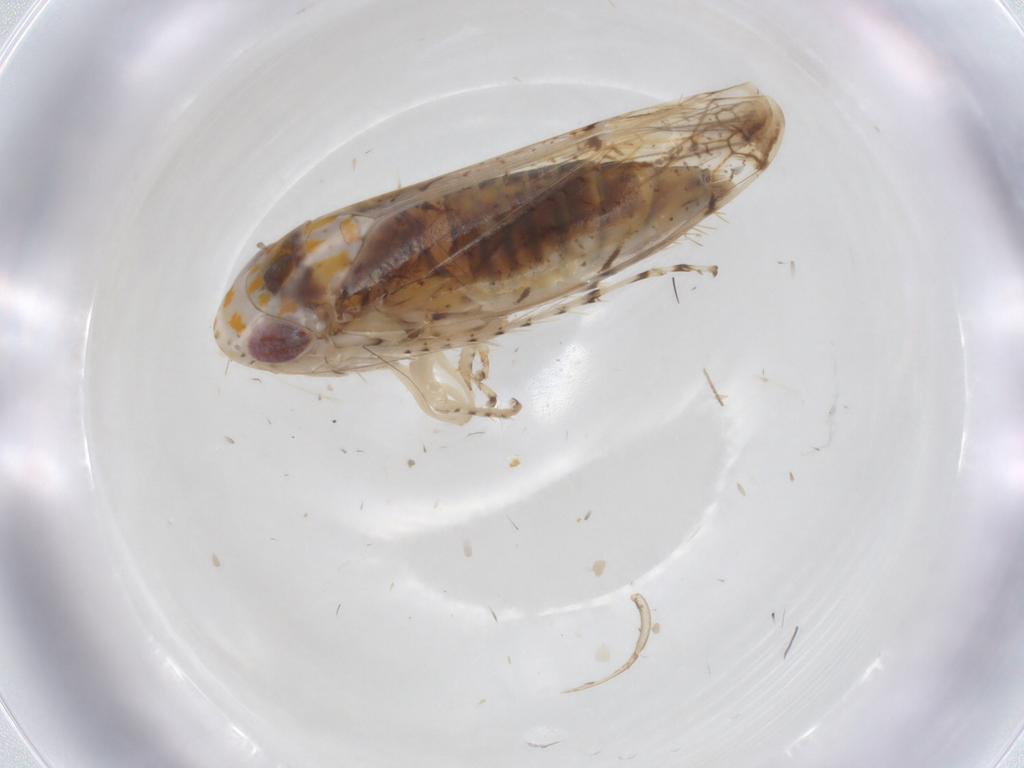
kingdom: Animalia
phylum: Arthropoda
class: Insecta
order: Hemiptera
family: Cicadellidae
